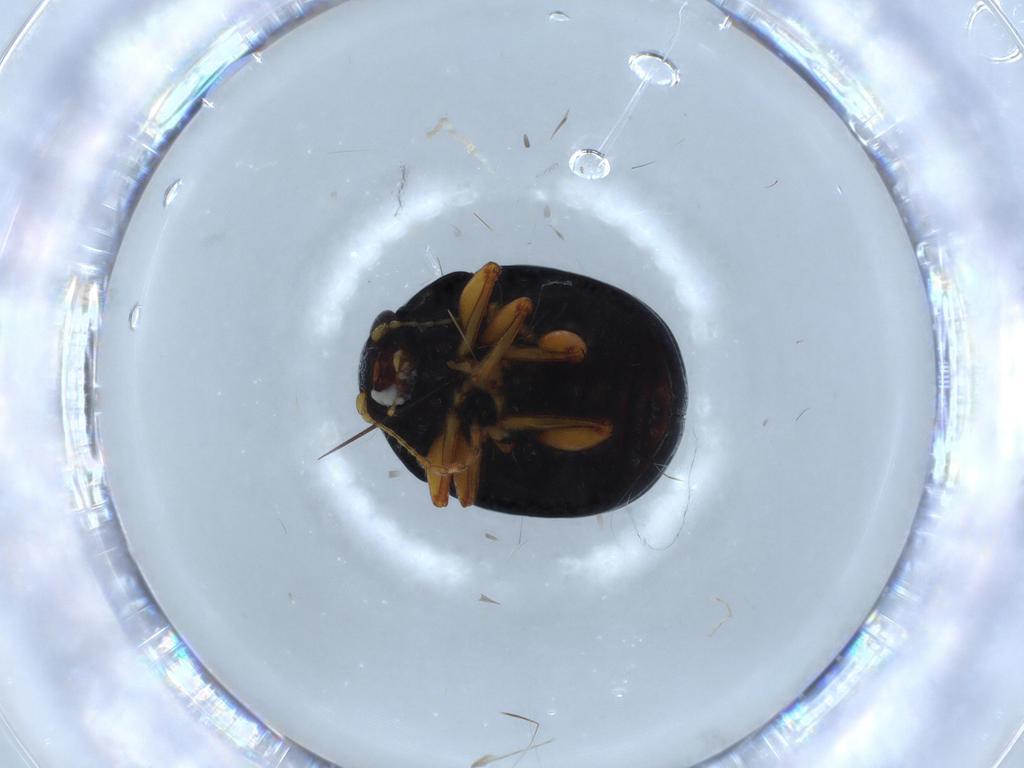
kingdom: Animalia
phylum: Arthropoda
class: Insecta
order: Coleoptera
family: Chrysomelidae
